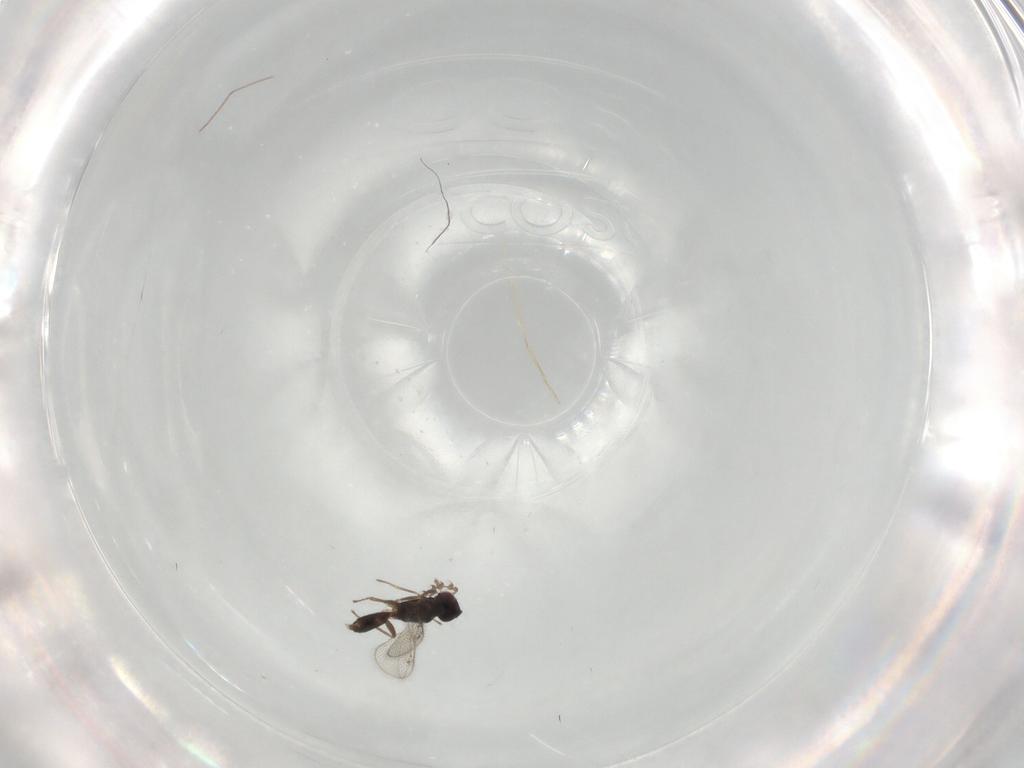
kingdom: Animalia
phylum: Arthropoda
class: Insecta
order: Hymenoptera
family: Eulophidae
